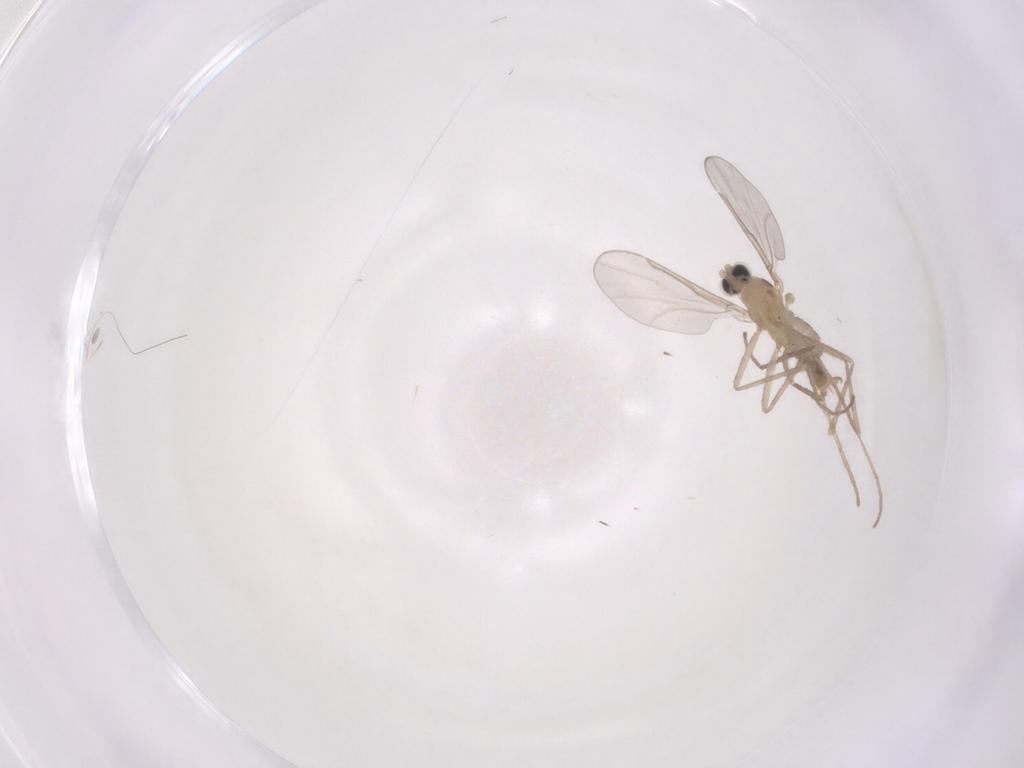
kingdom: Animalia
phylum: Arthropoda
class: Insecta
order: Diptera
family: Cecidomyiidae
